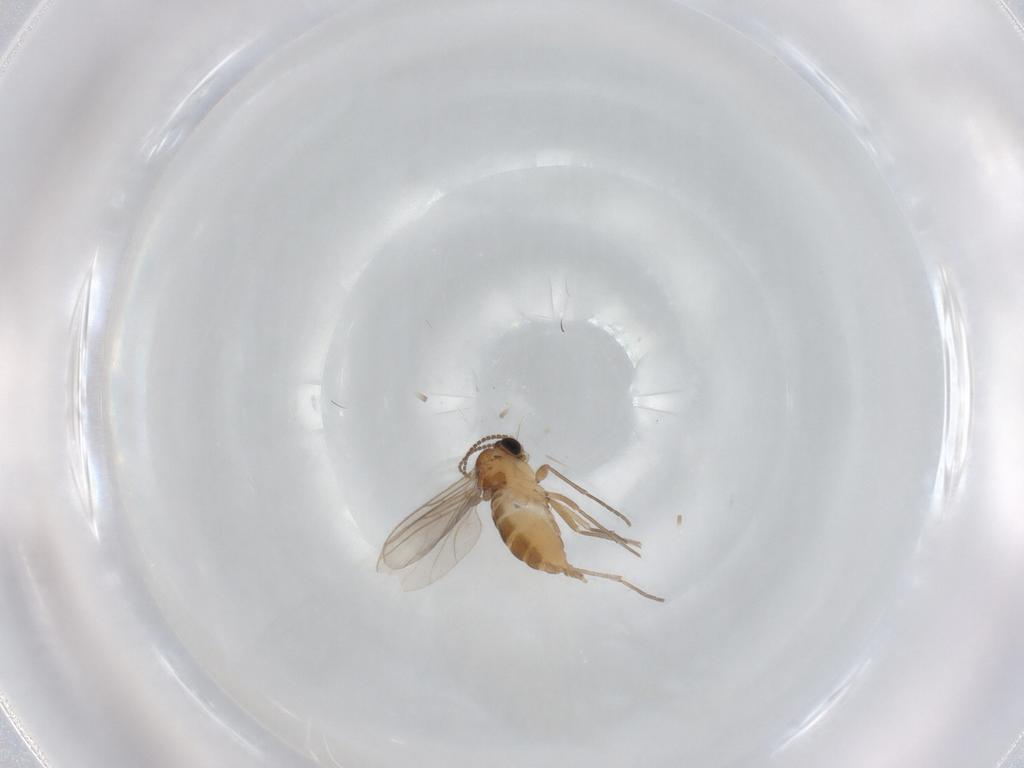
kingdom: Animalia
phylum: Arthropoda
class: Insecta
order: Diptera
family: Sciaridae
